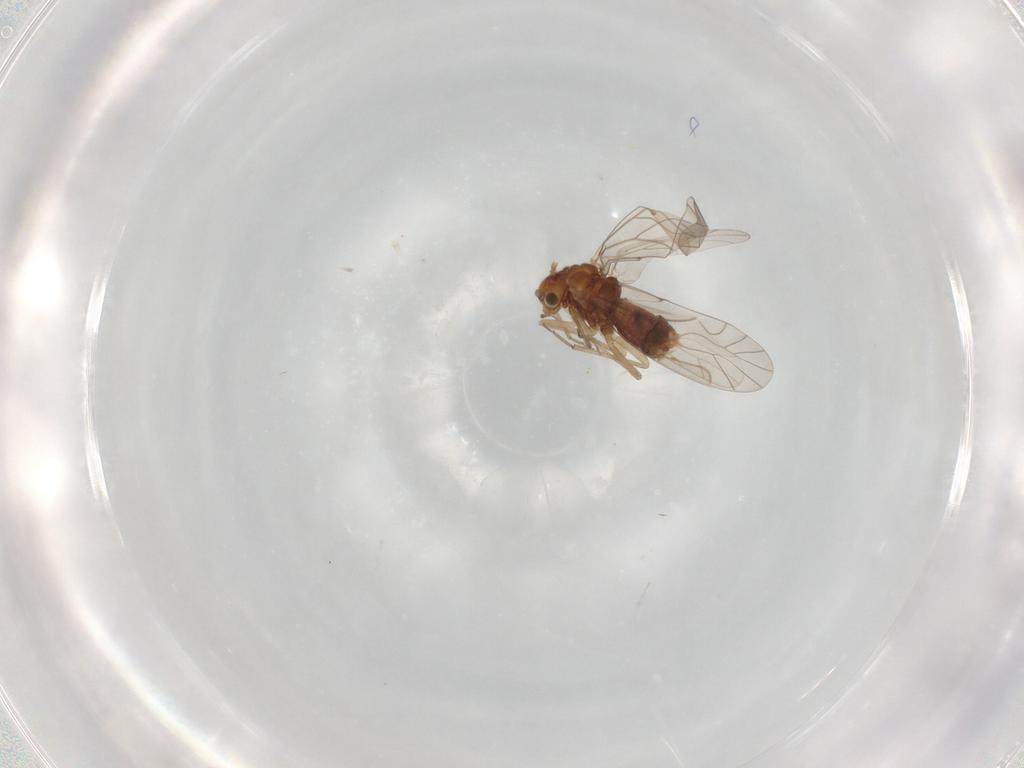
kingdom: Animalia
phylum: Arthropoda
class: Insecta
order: Psocodea
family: Lachesillidae
